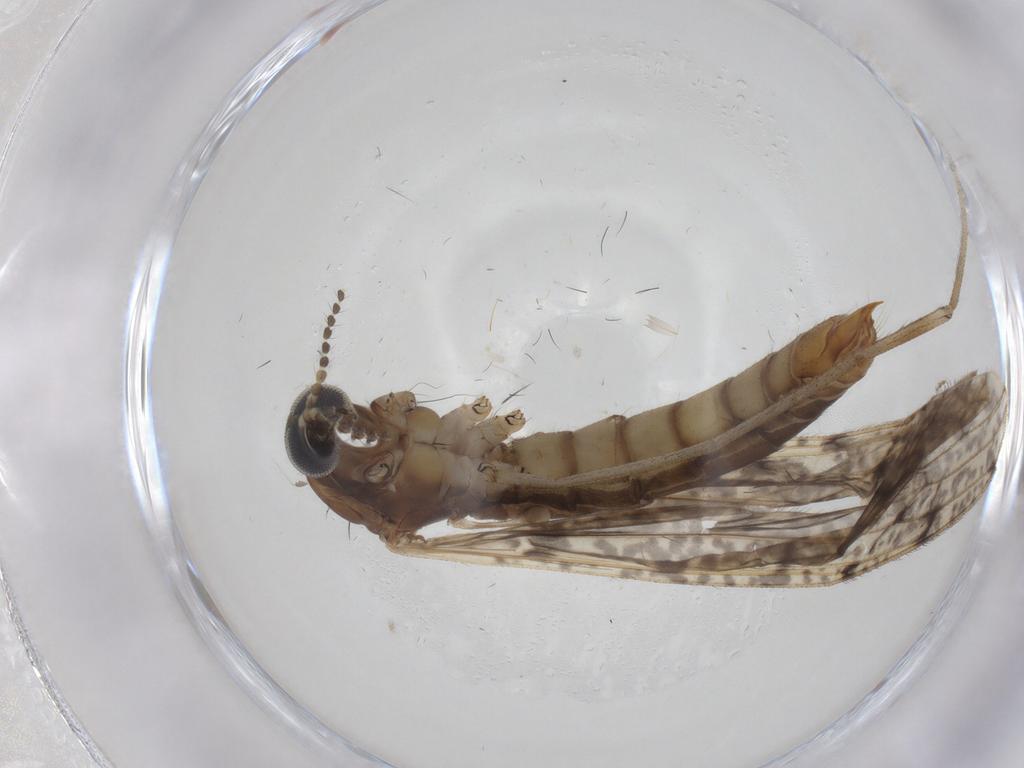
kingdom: Animalia
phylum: Arthropoda
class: Insecta
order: Diptera
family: Limoniidae
